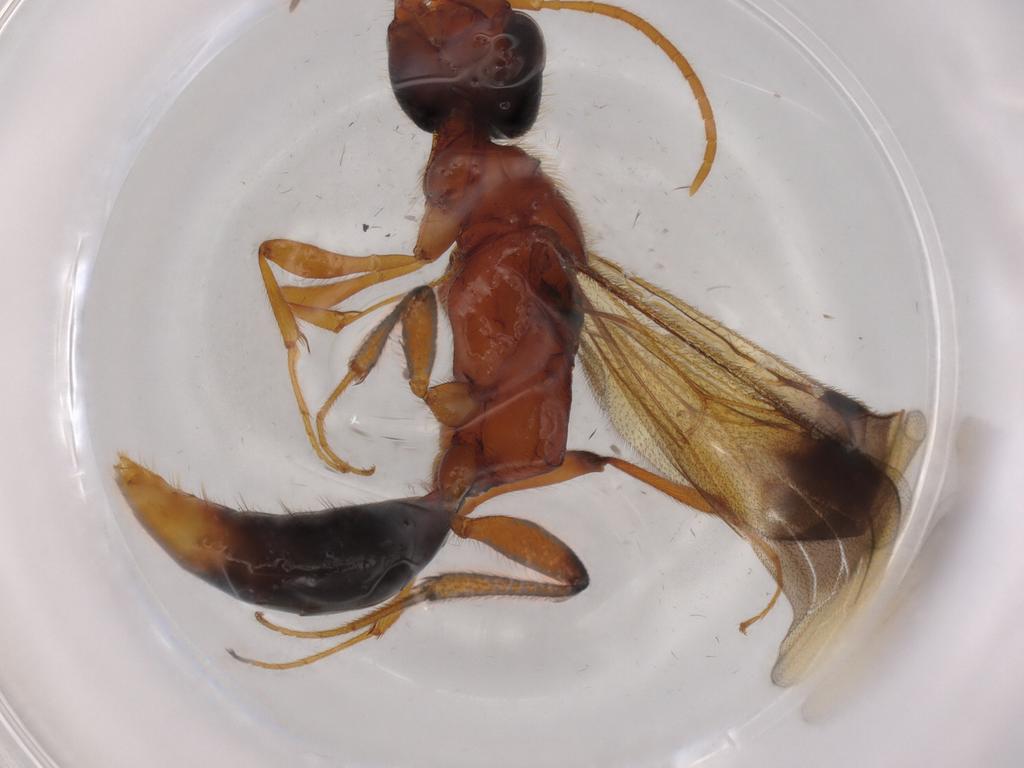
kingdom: Animalia
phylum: Arthropoda
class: Insecta
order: Hymenoptera
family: Bethylidae
